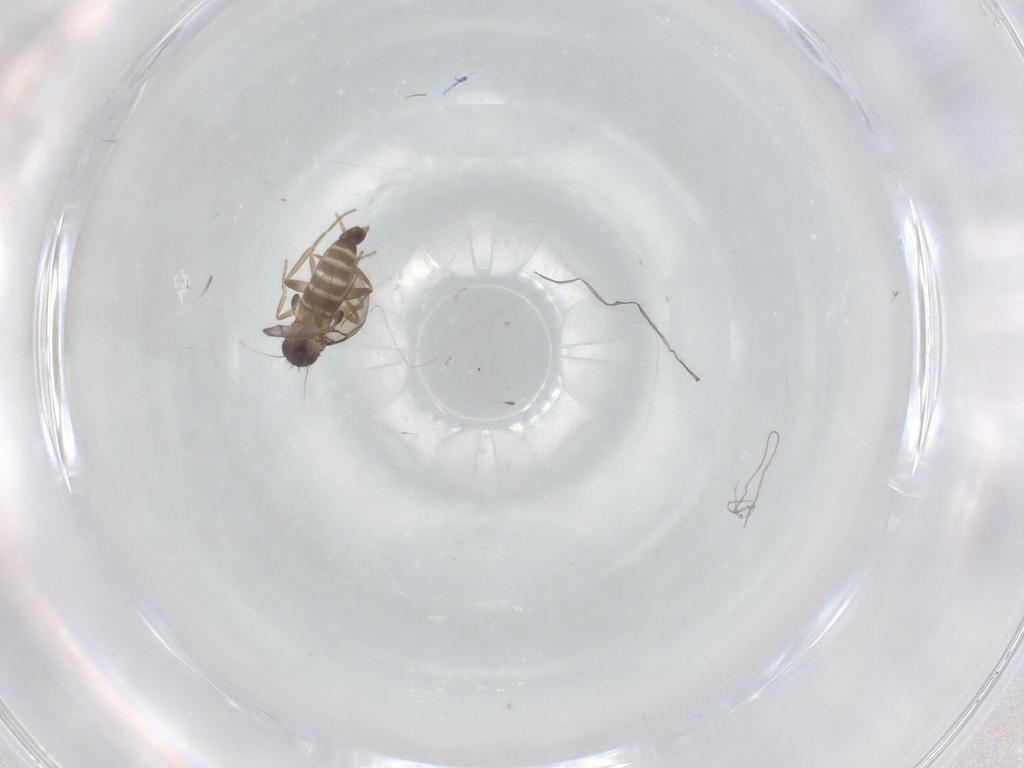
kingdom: Animalia
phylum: Arthropoda
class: Insecta
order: Diptera
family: Phoridae
